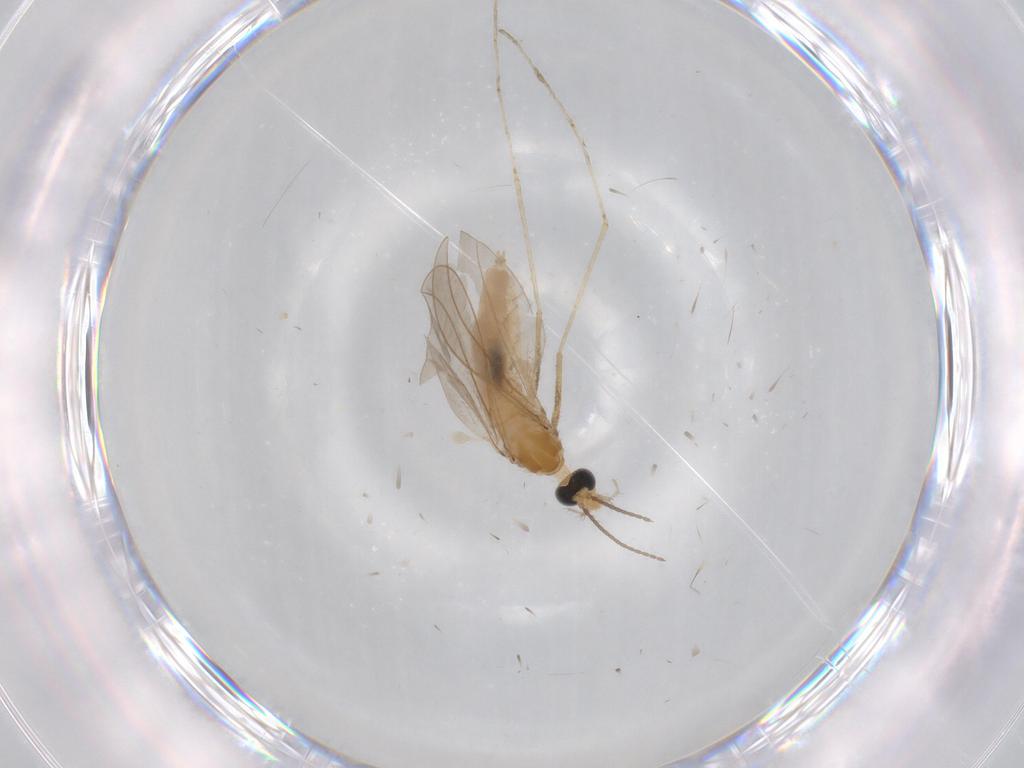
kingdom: Animalia
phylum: Arthropoda
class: Insecta
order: Diptera
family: Cecidomyiidae
